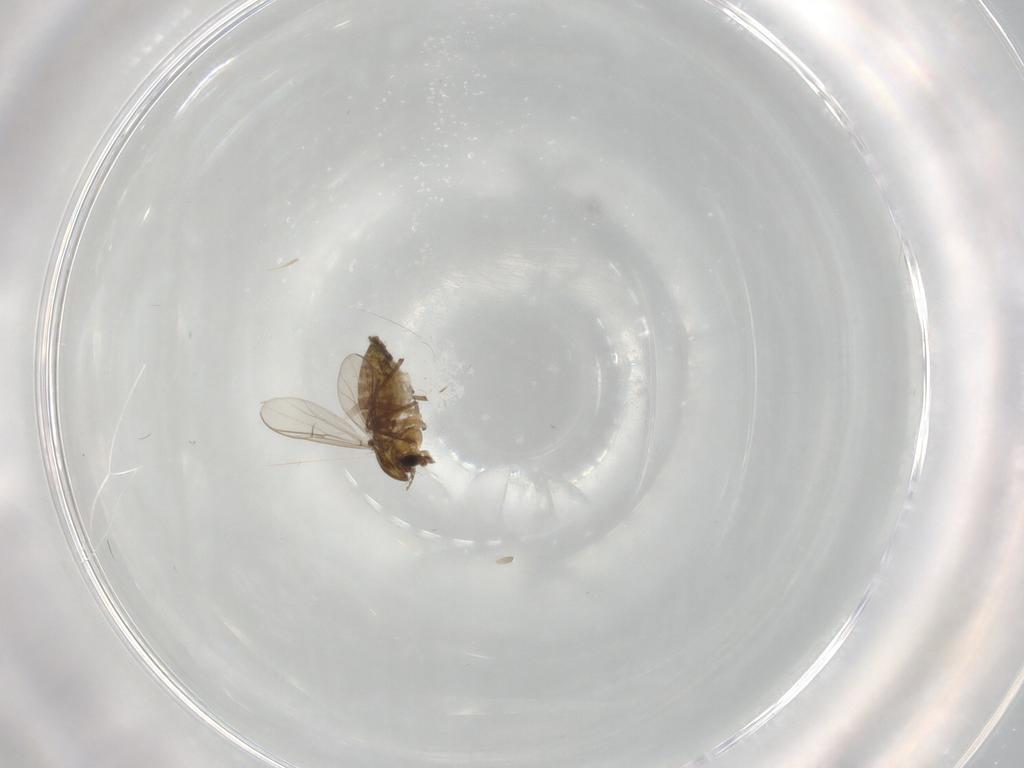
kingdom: Animalia
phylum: Arthropoda
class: Insecta
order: Diptera
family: Chironomidae
